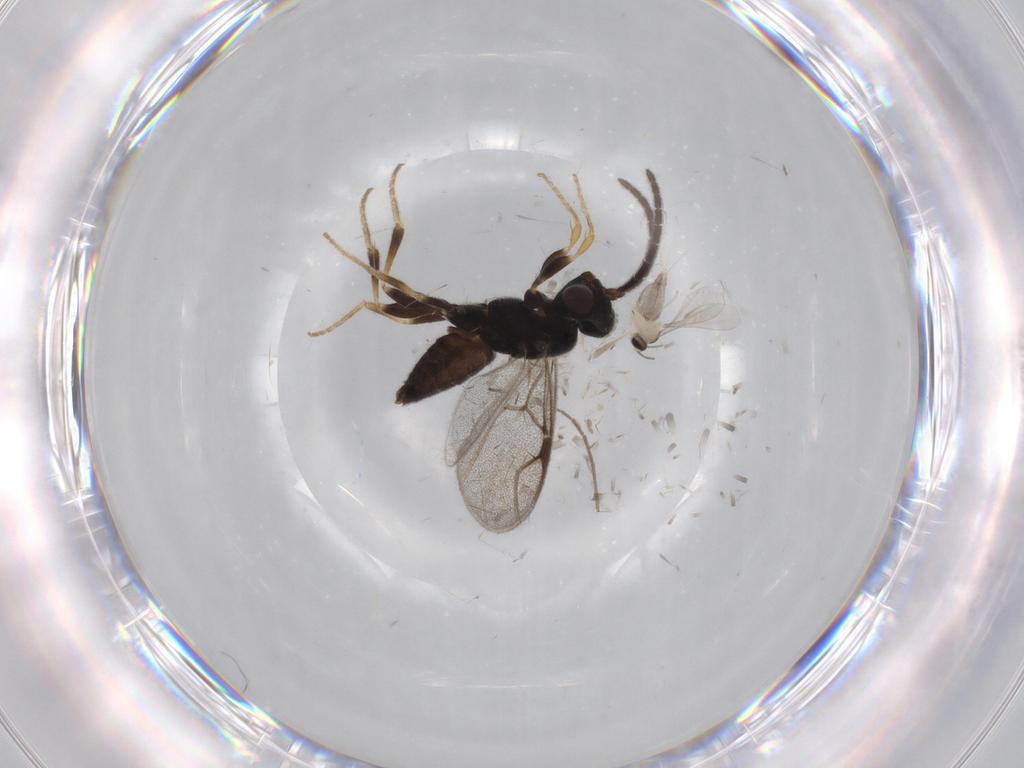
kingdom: Animalia
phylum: Arthropoda
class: Insecta
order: Hymenoptera
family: Dryinidae
